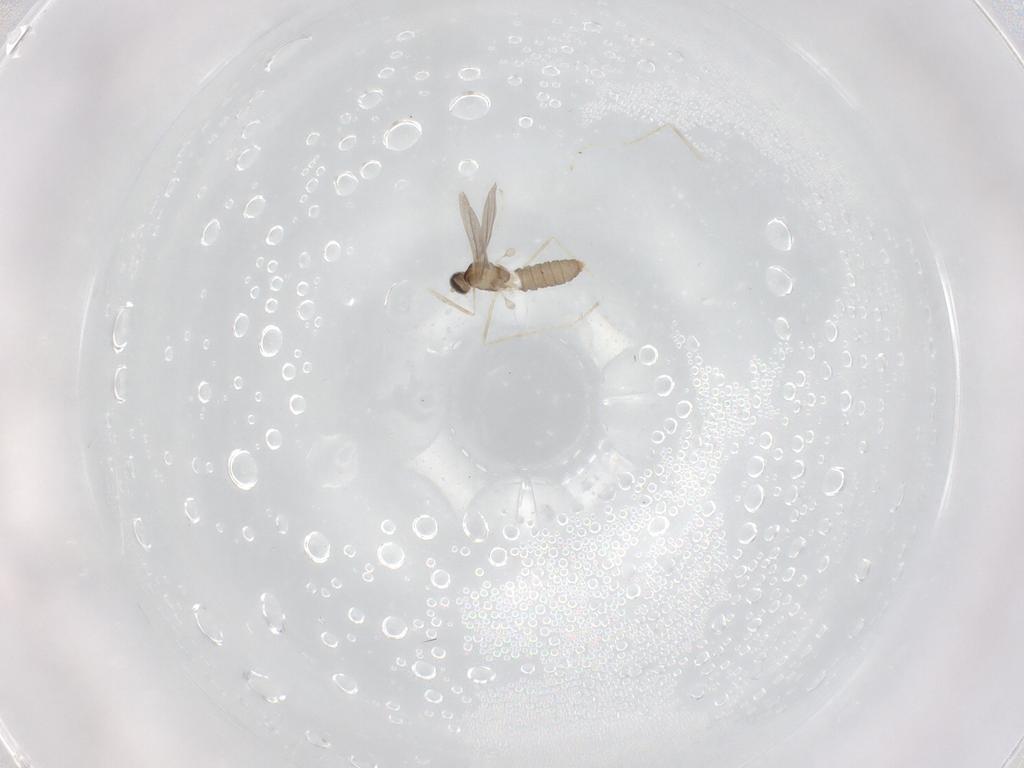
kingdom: Animalia
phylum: Arthropoda
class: Insecta
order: Diptera
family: Cecidomyiidae
